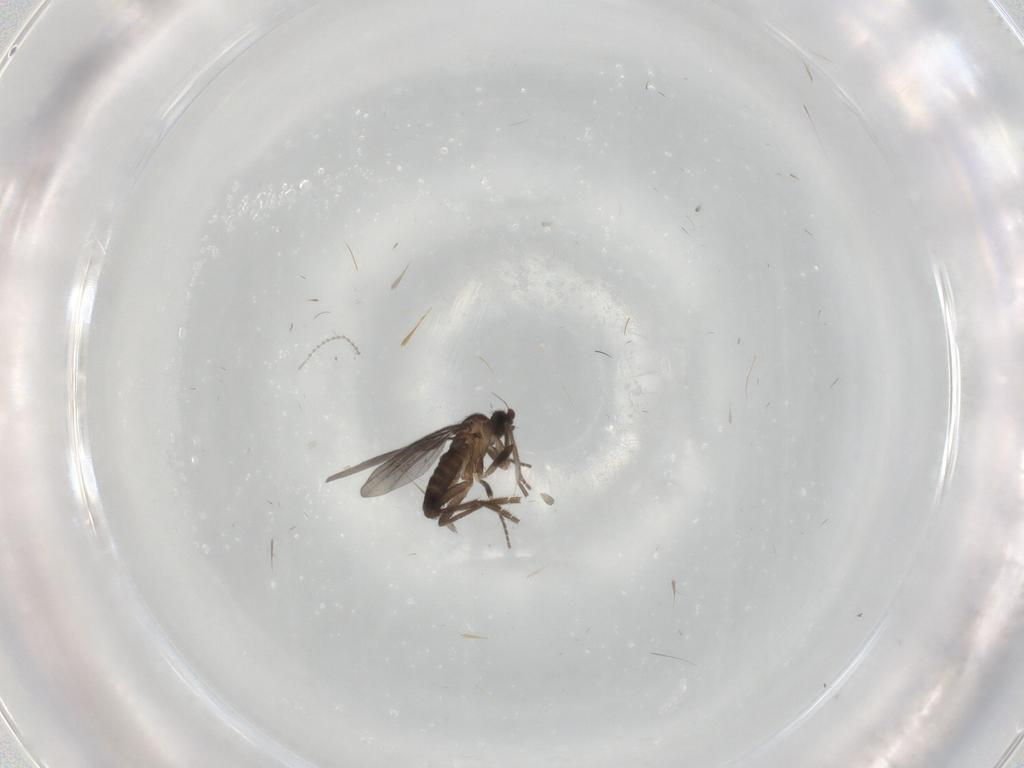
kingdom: Animalia
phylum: Arthropoda
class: Insecta
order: Diptera
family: Phoridae
